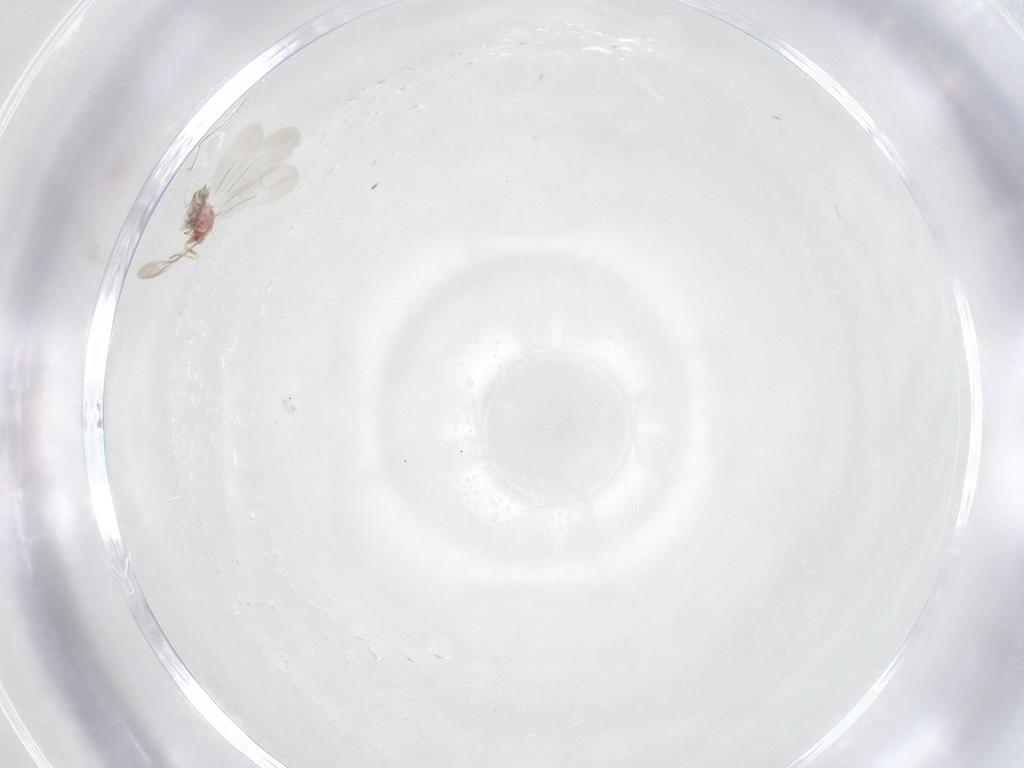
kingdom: Animalia
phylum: Arthropoda
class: Insecta
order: Hemiptera
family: Aleyrodidae
